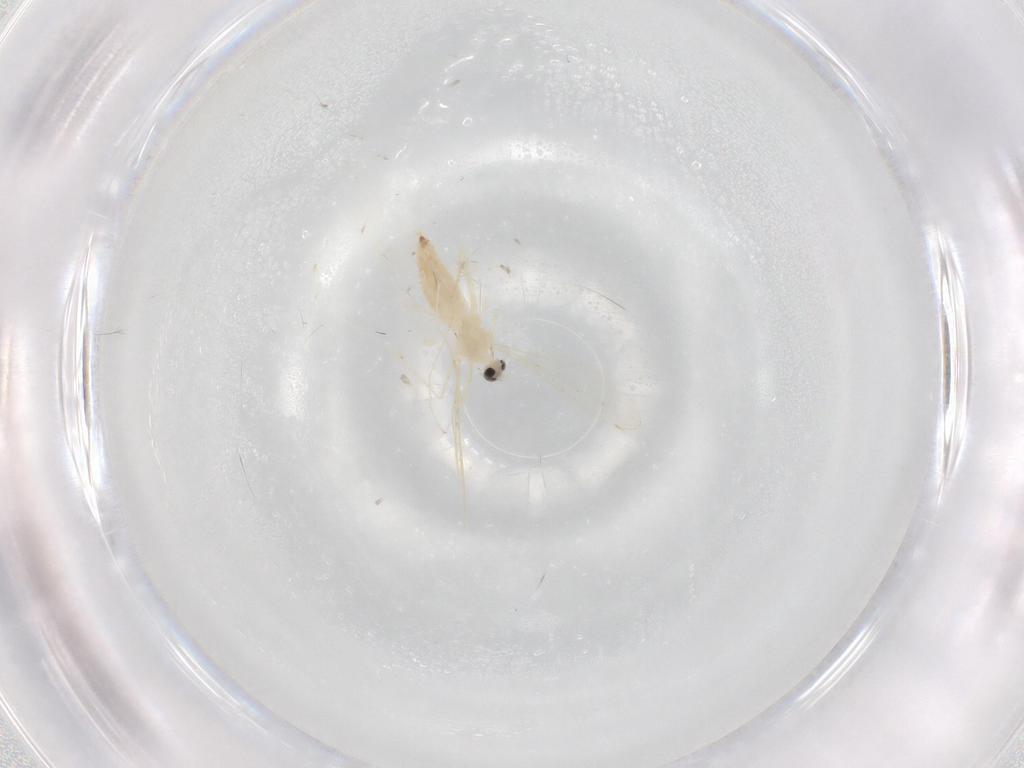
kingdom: Animalia
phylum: Arthropoda
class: Insecta
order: Diptera
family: Cecidomyiidae
